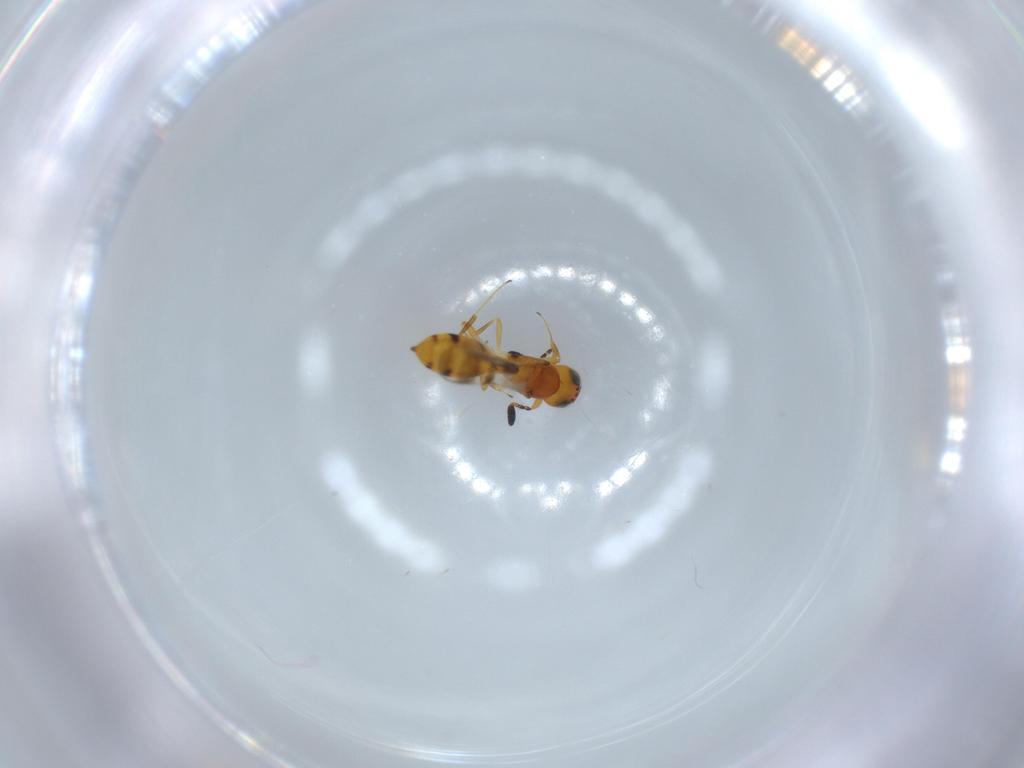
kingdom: Animalia
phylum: Arthropoda
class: Insecta
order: Hymenoptera
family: Scelionidae
